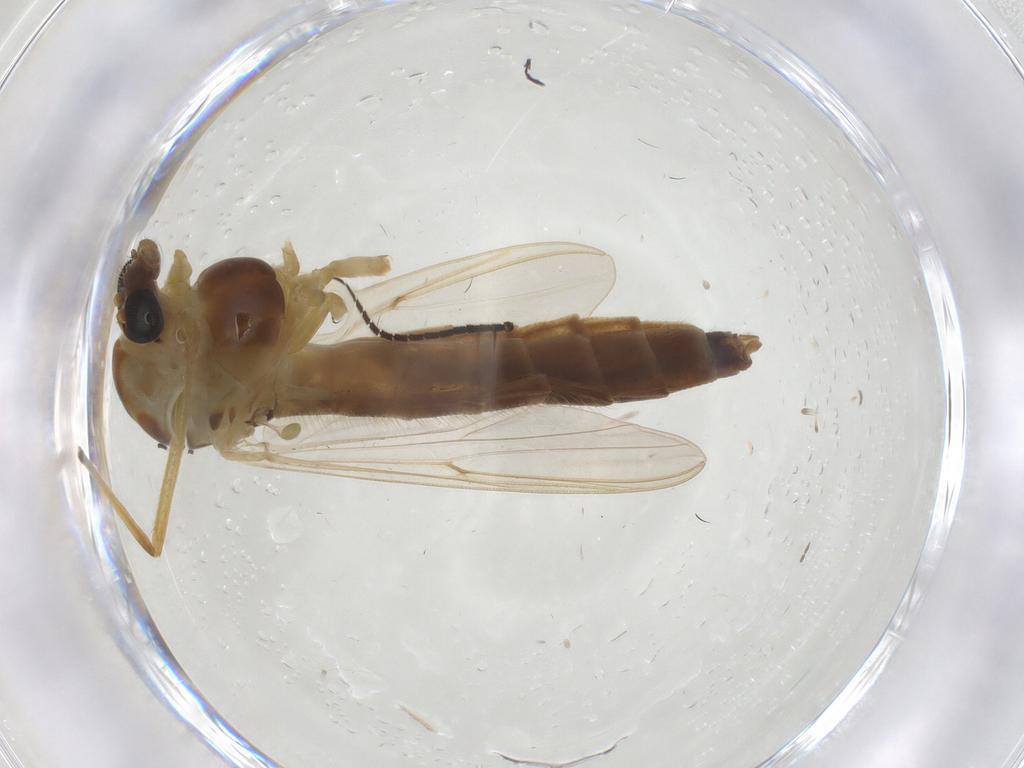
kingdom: Animalia
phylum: Arthropoda
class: Insecta
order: Diptera
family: Chironomidae
